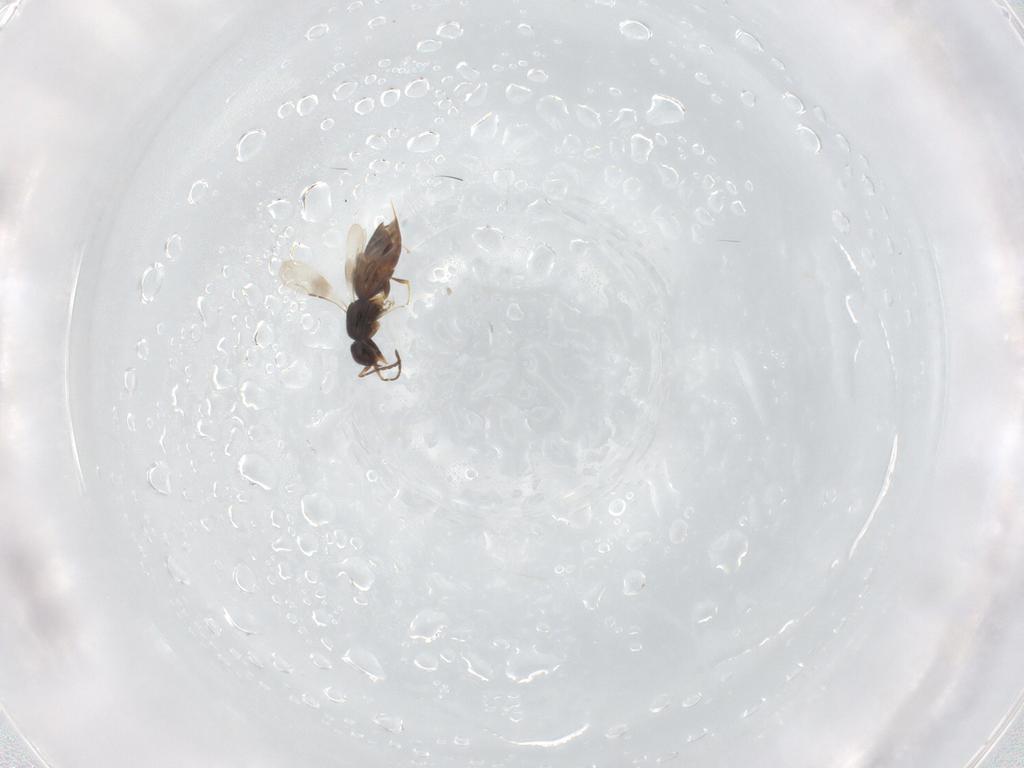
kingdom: Animalia
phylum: Arthropoda
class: Insecta
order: Hymenoptera
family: Ceraphronidae
